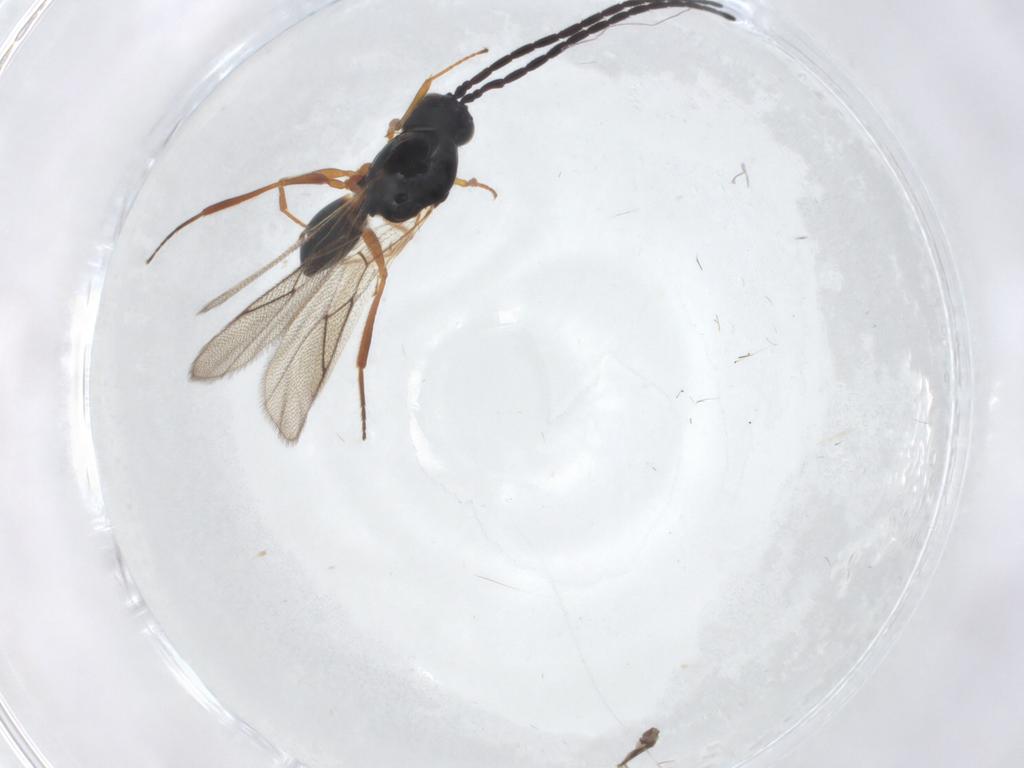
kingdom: Animalia
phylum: Arthropoda
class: Insecta
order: Hymenoptera
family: Figitidae
